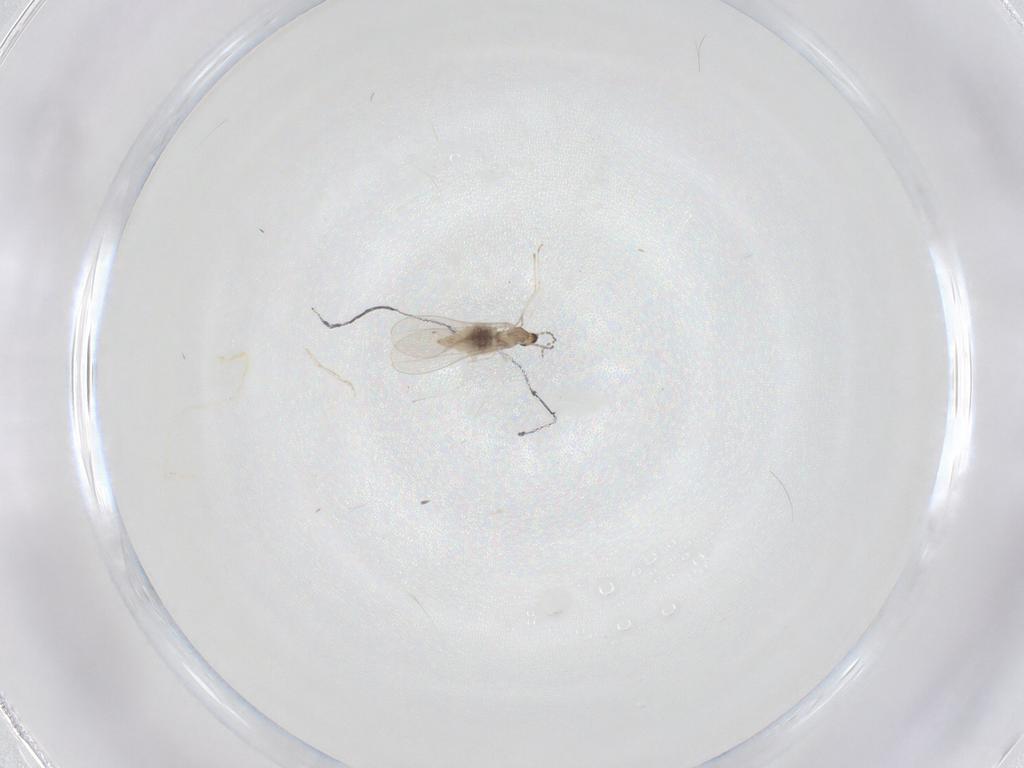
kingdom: Animalia
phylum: Arthropoda
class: Insecta
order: Diptera
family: Cecidomyiidae
